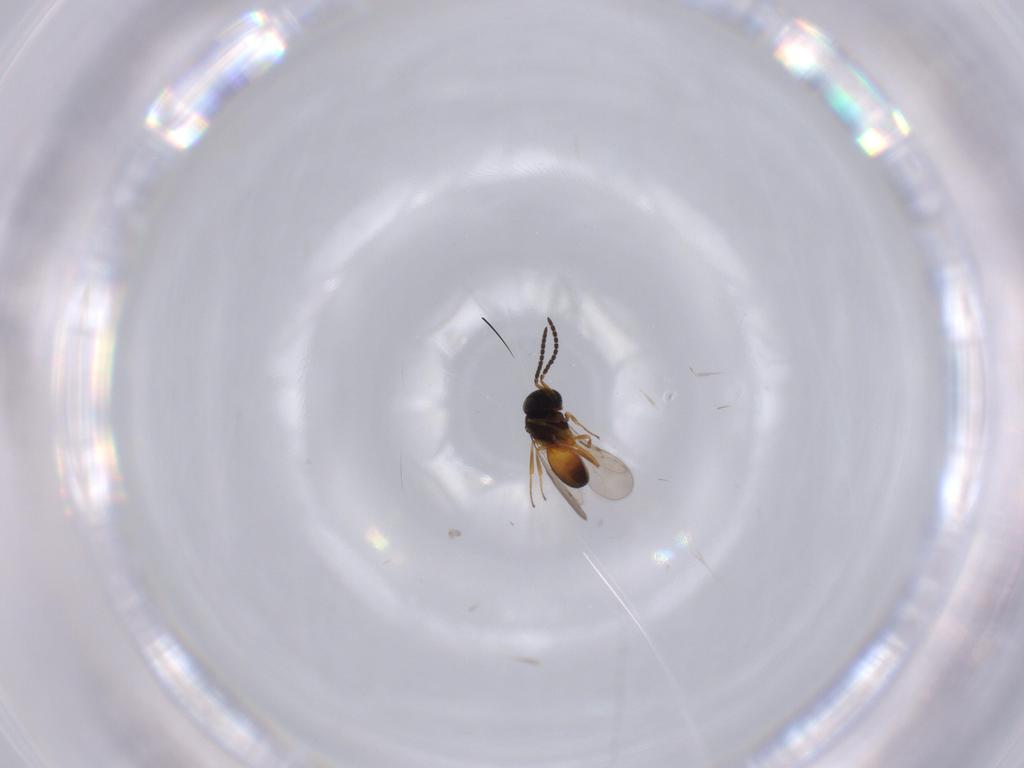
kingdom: Animalia
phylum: Arthropoda
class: Insecta
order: Hymenoptera
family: Scelionidae
